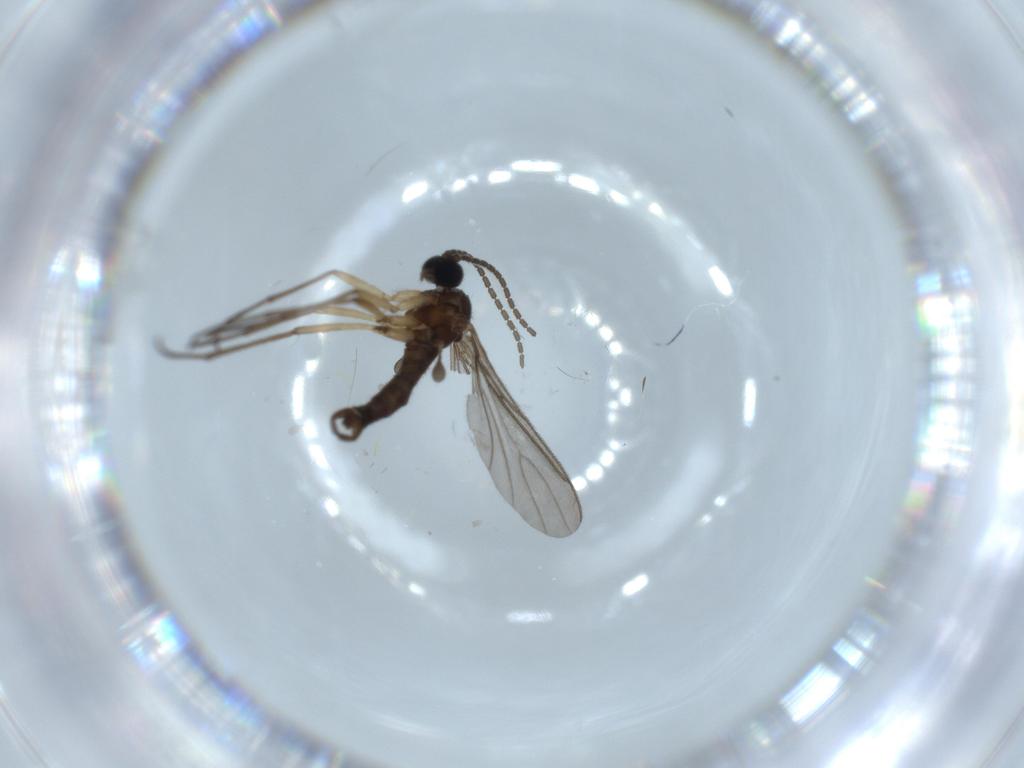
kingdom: Animalia
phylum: Arthropoda
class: Insecta
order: Diptera
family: Sciaridae
